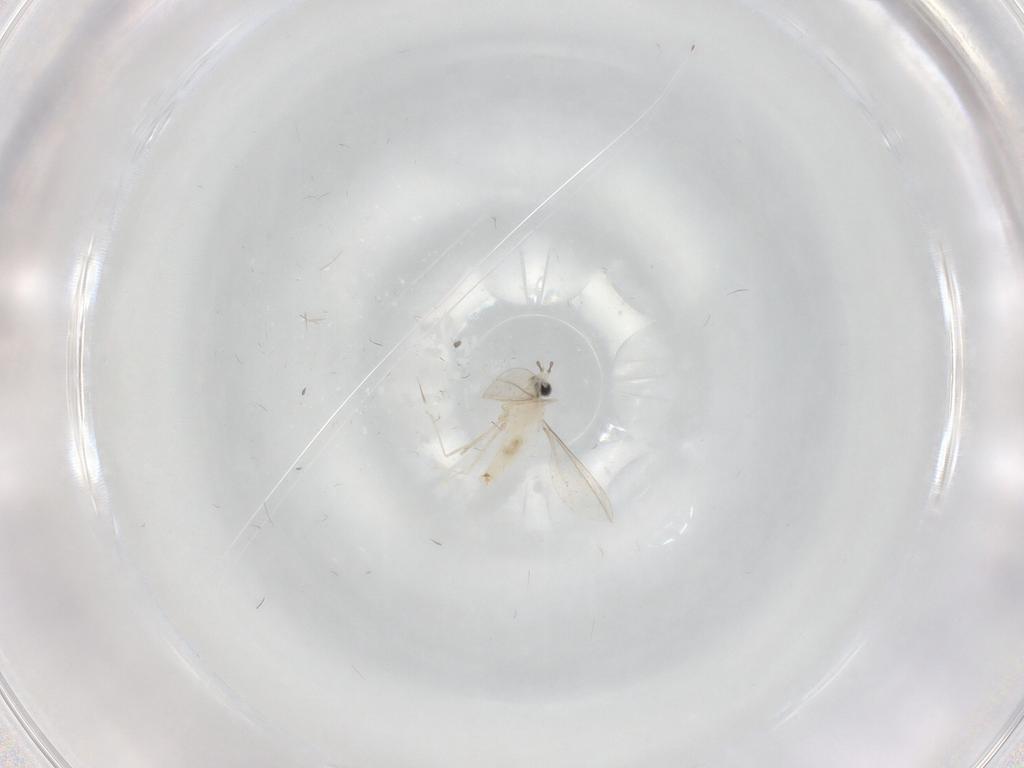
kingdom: Animalia
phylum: Arthropoda
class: Insecta
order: Diptera
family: Cecidomyiidae
